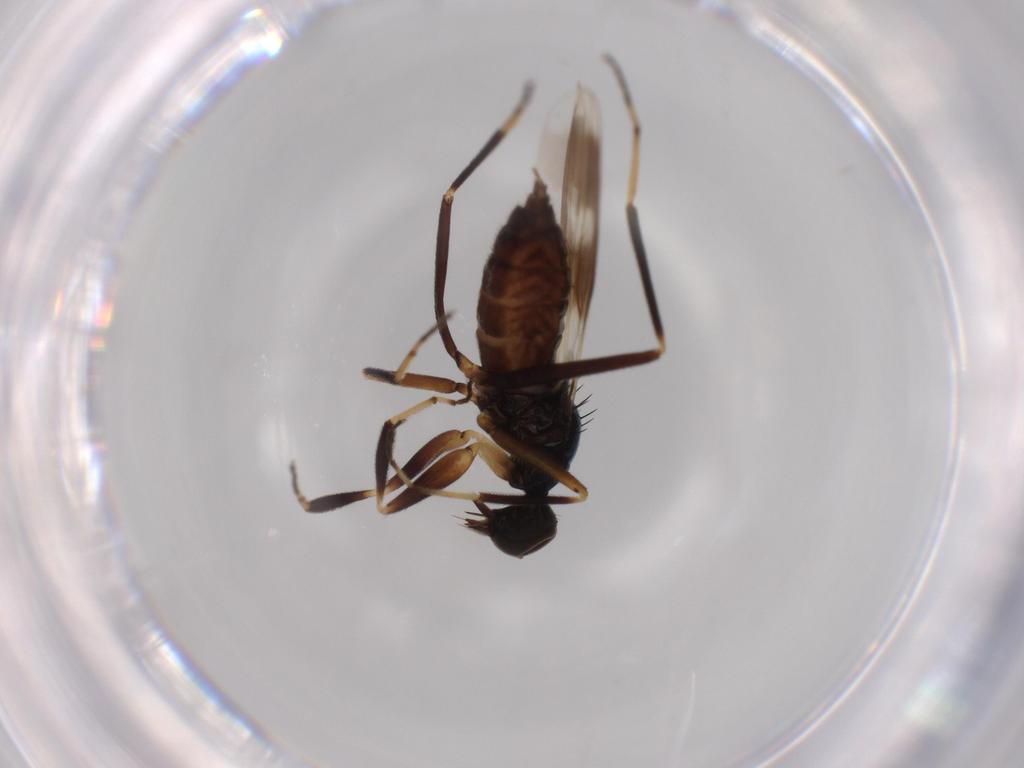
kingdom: Animalia
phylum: Arthropoda
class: Insecta
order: Diptera
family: Hybotidae
